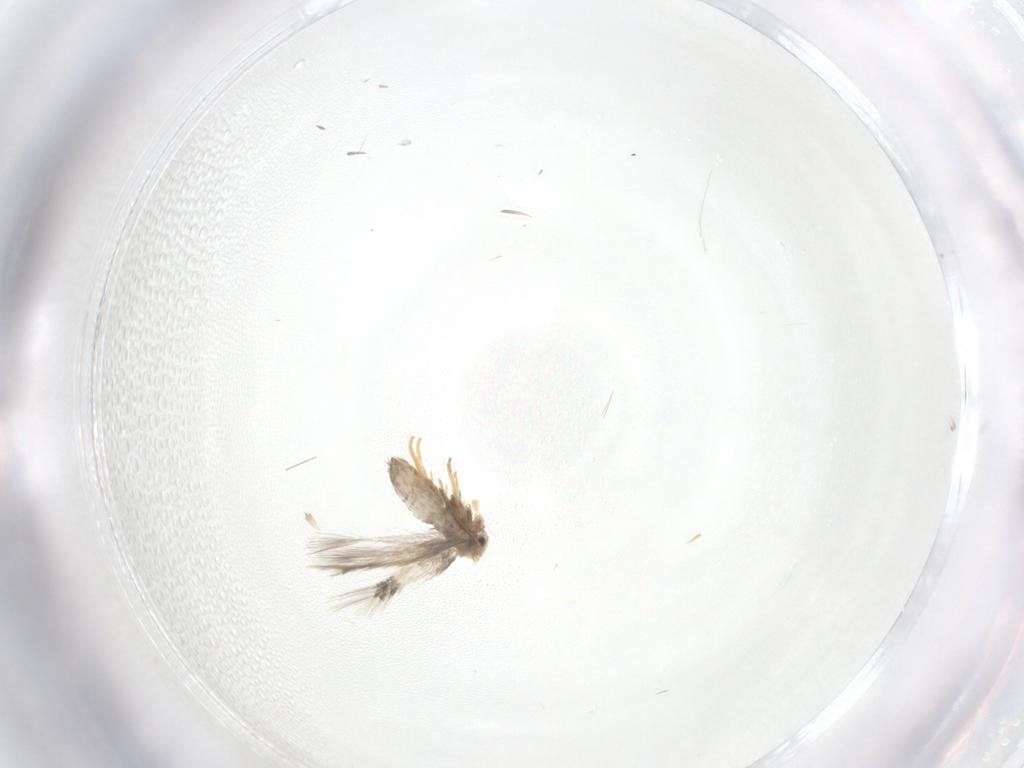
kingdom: Animalia
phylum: Arthropoda
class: Insecta
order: Lepidoptera
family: Nepticulidae
